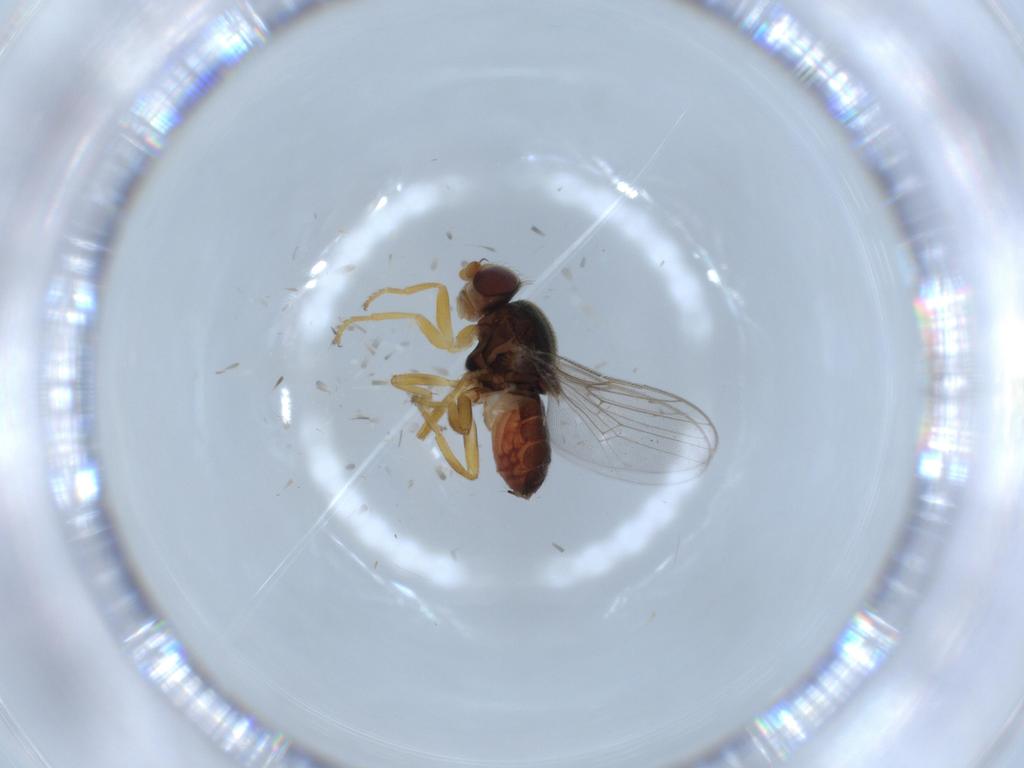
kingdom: Animalia
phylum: Arthropoda
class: Insecta
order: Diptera
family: Chloropidae
